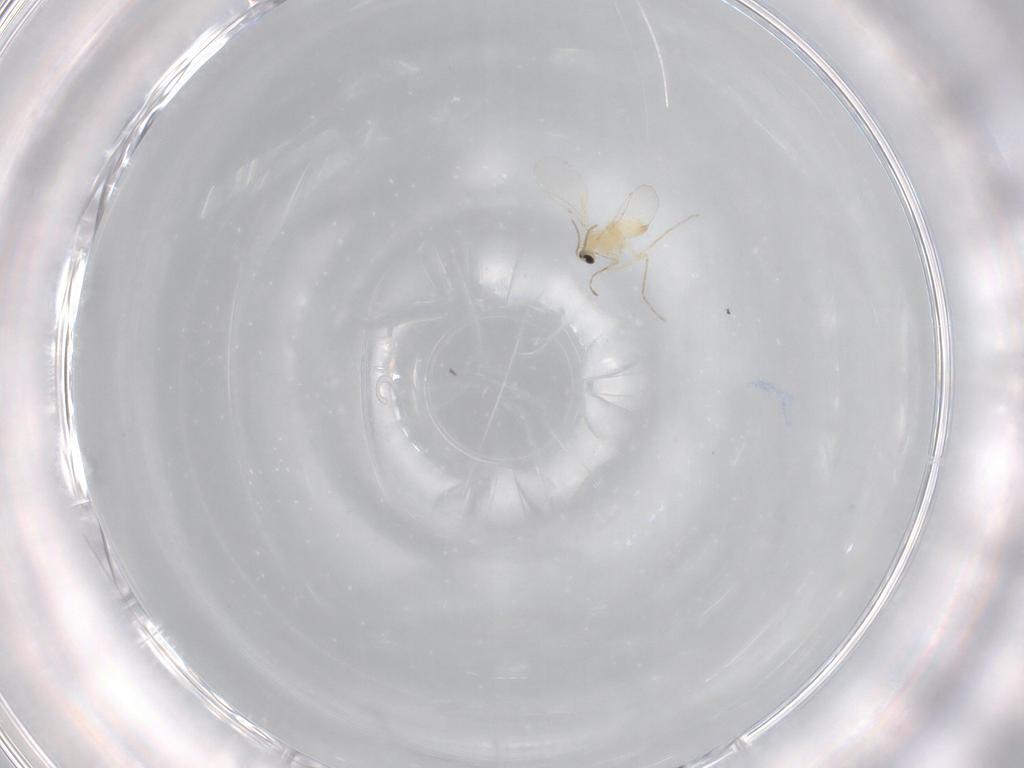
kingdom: Animalia
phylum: Arthropoda
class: Insecta
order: Diptera
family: Cecidomyiidae
